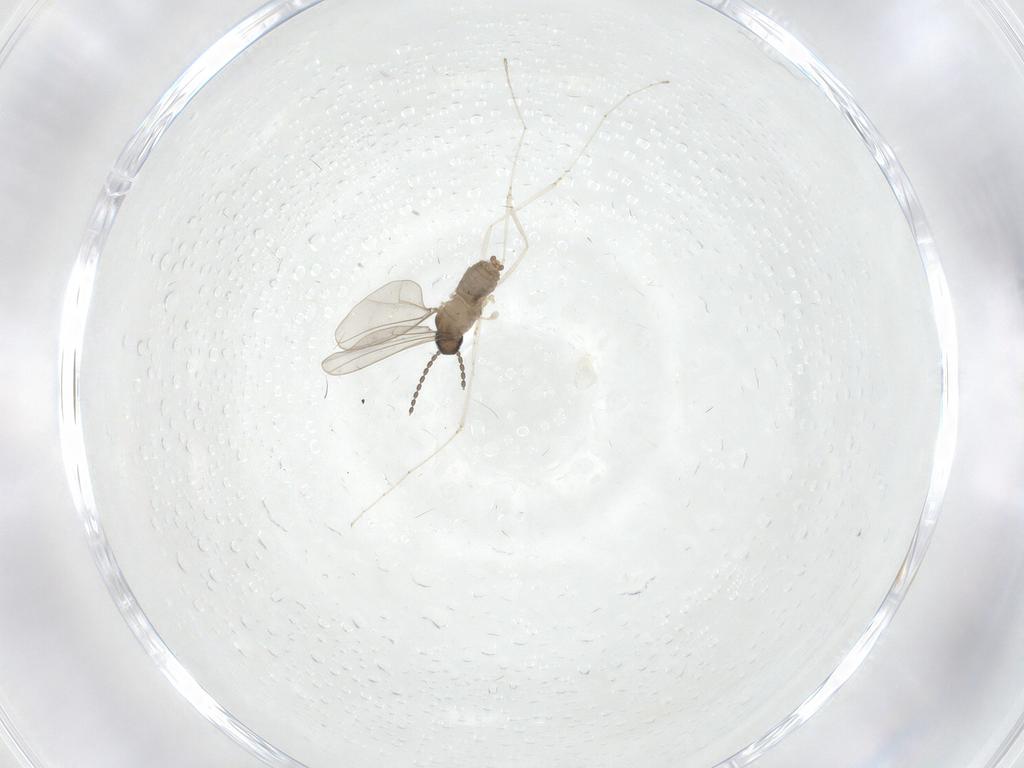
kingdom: Animalia
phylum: Arthropoda
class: Insecta
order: Diptera
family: Cecidomyiidae
